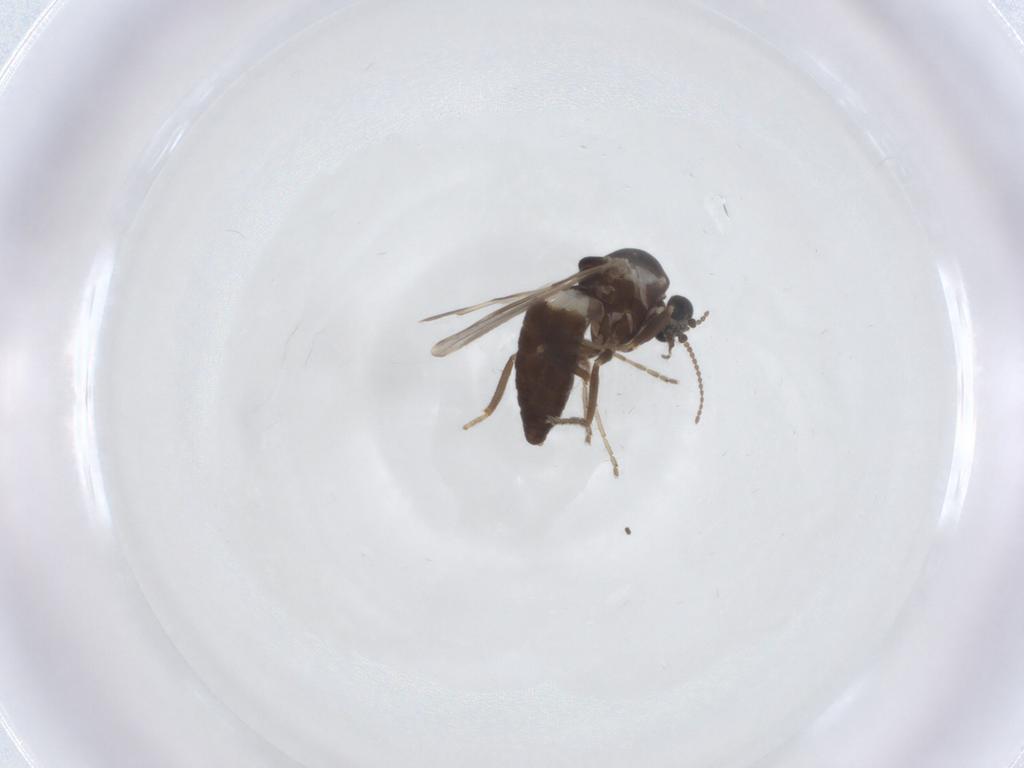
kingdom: Animalia
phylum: Arthropoda
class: Insecta
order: Diptera
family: Ceratopogonidae
